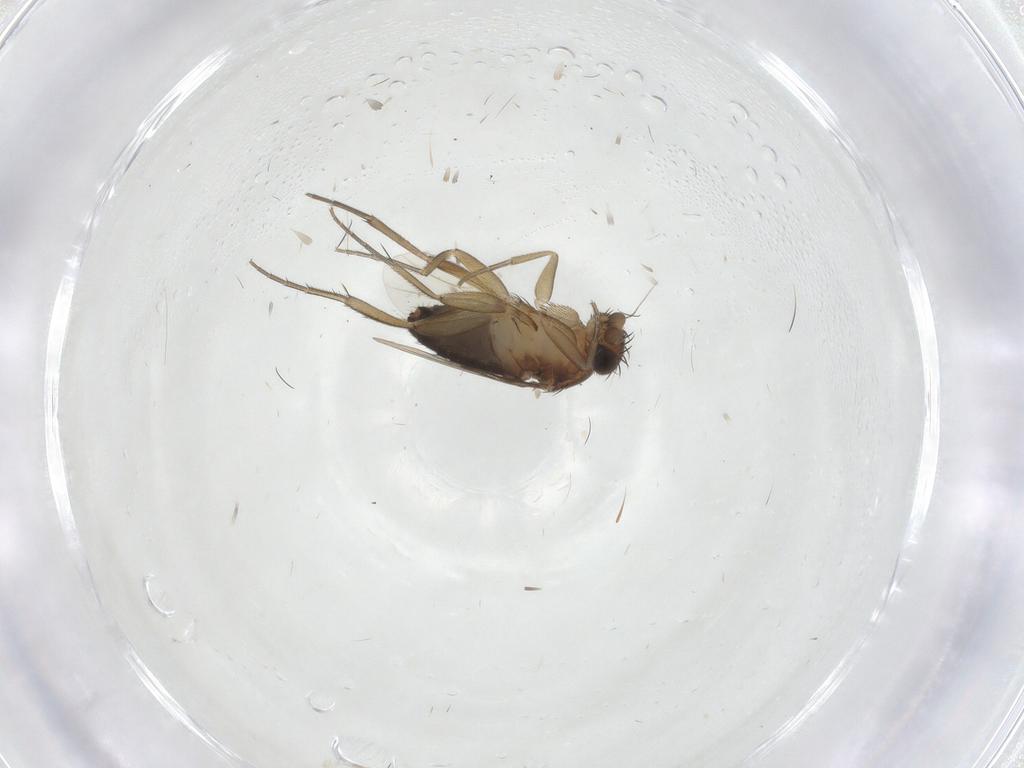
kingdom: Animalia
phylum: Arthropoda
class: Insecta
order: Diptera
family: Phoridae
